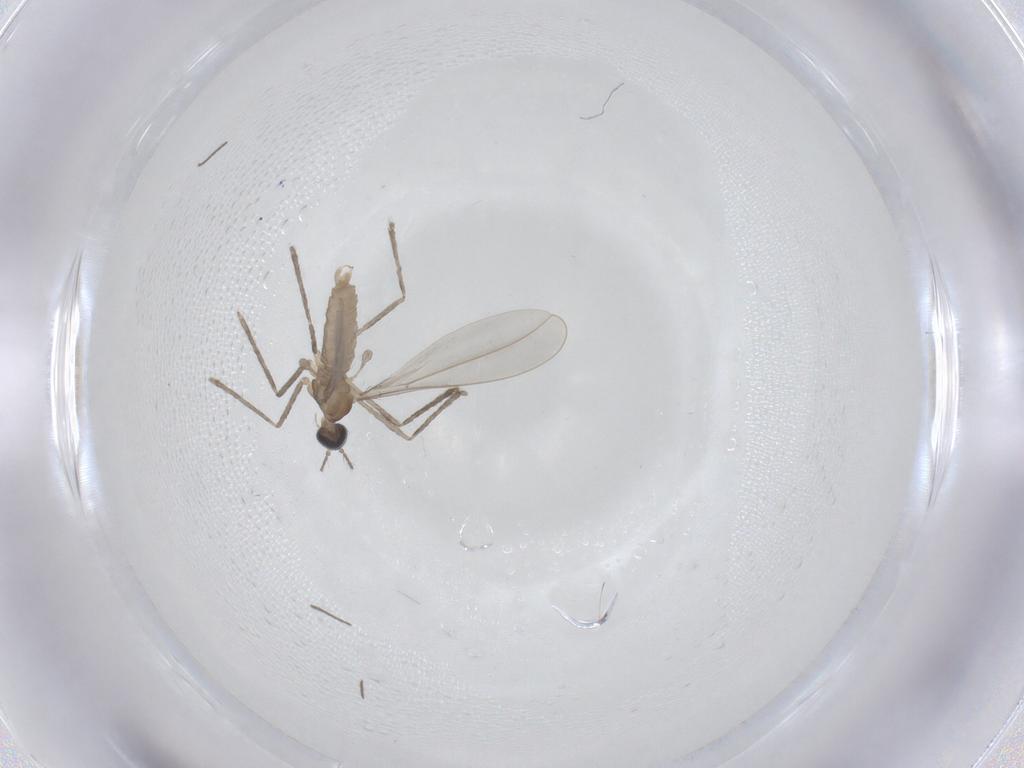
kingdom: Animalia
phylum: Arthropoda
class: Insecta
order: Diptera
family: Cecidomyiidae
